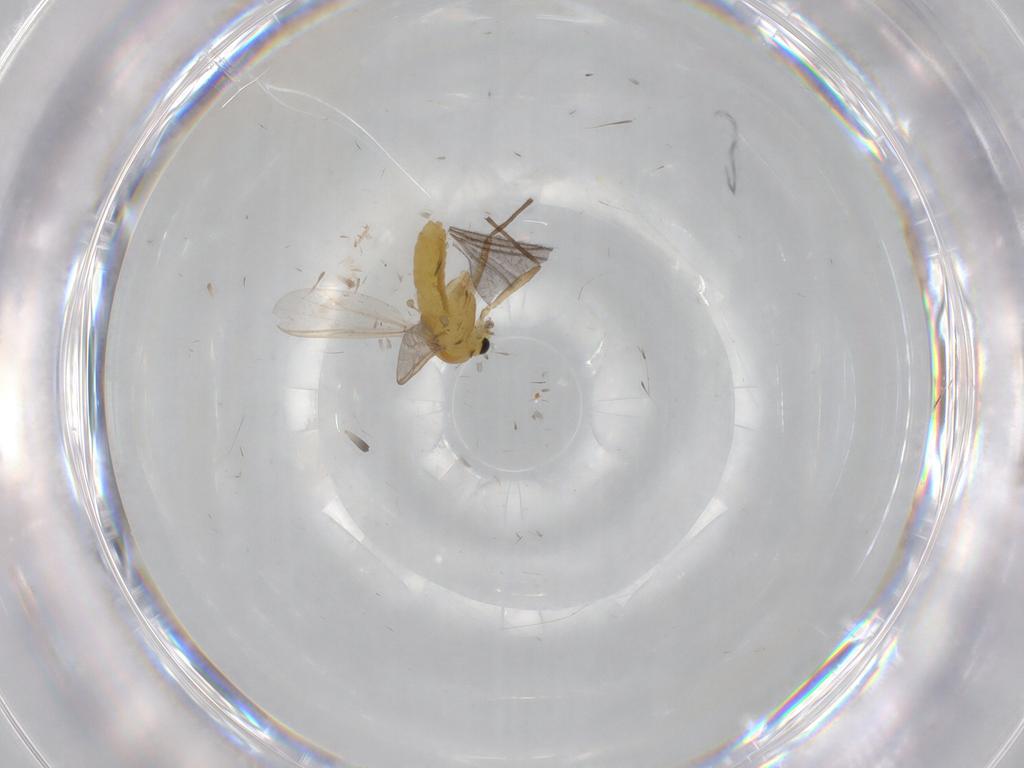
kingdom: Animalia
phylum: Arthropoda
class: Insecta
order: Diptera
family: Chironomidae
